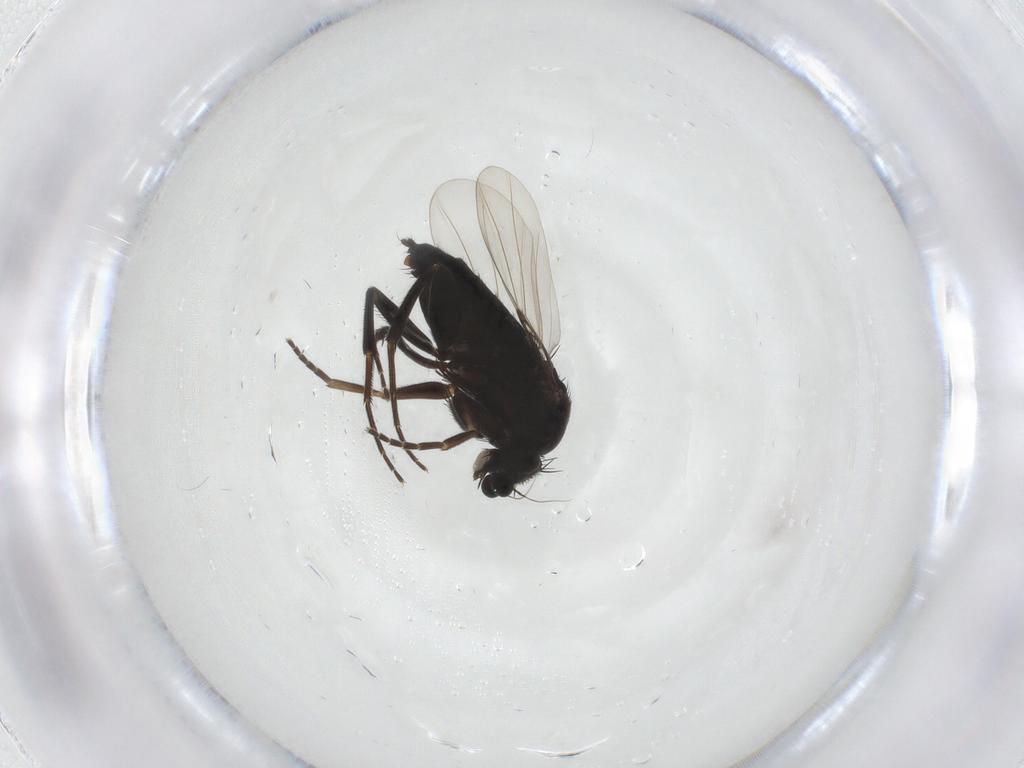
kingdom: Animalia
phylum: Arthropoda
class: Insecta
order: Diptera
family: Phoridae
